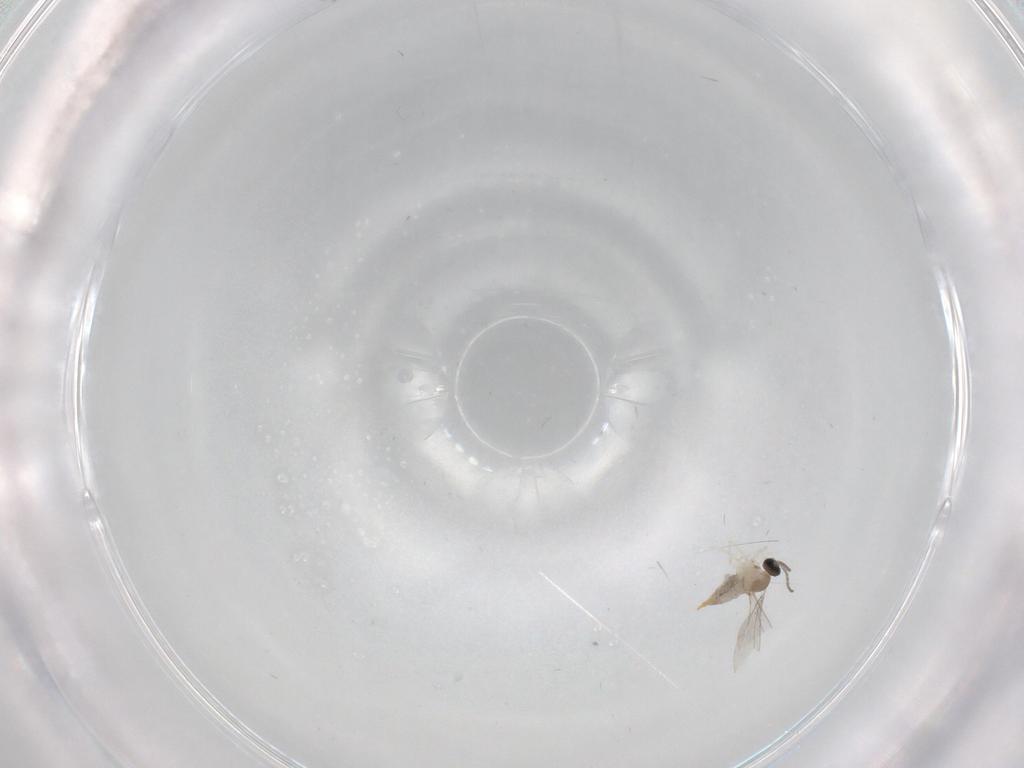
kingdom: Animalia
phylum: Arthropoda
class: Insecta
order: Diptera
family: Cecidomyiidae
